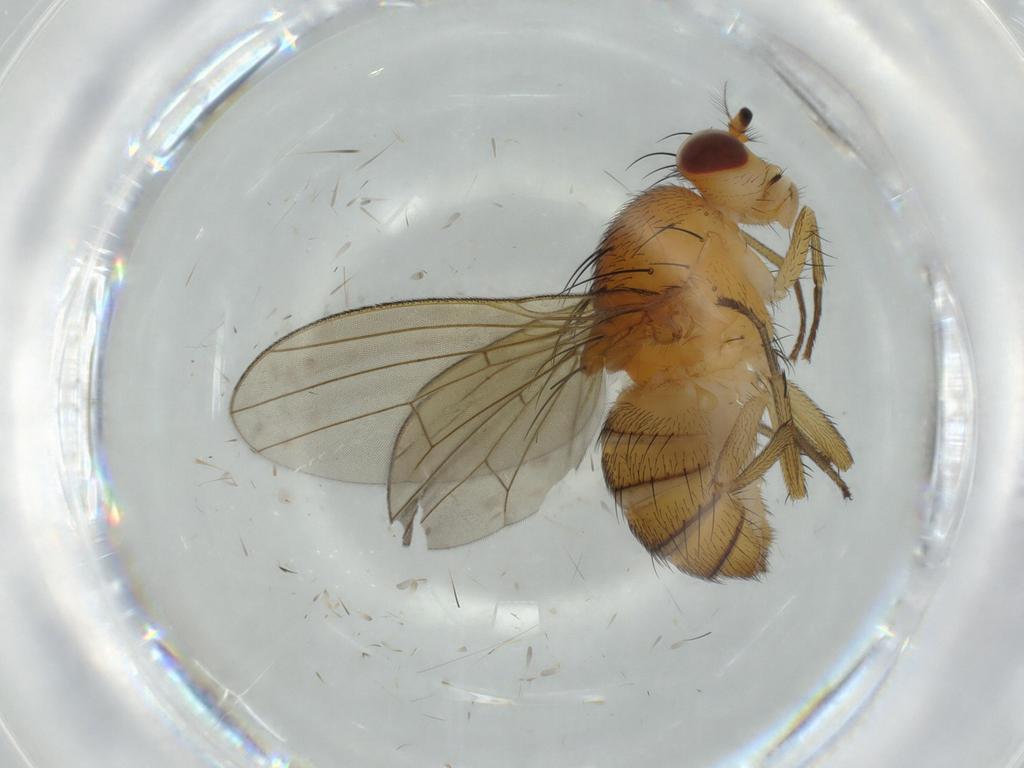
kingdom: Animalia
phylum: Arthropoda
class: Insecta
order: Diptera
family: Lauxaniidae
